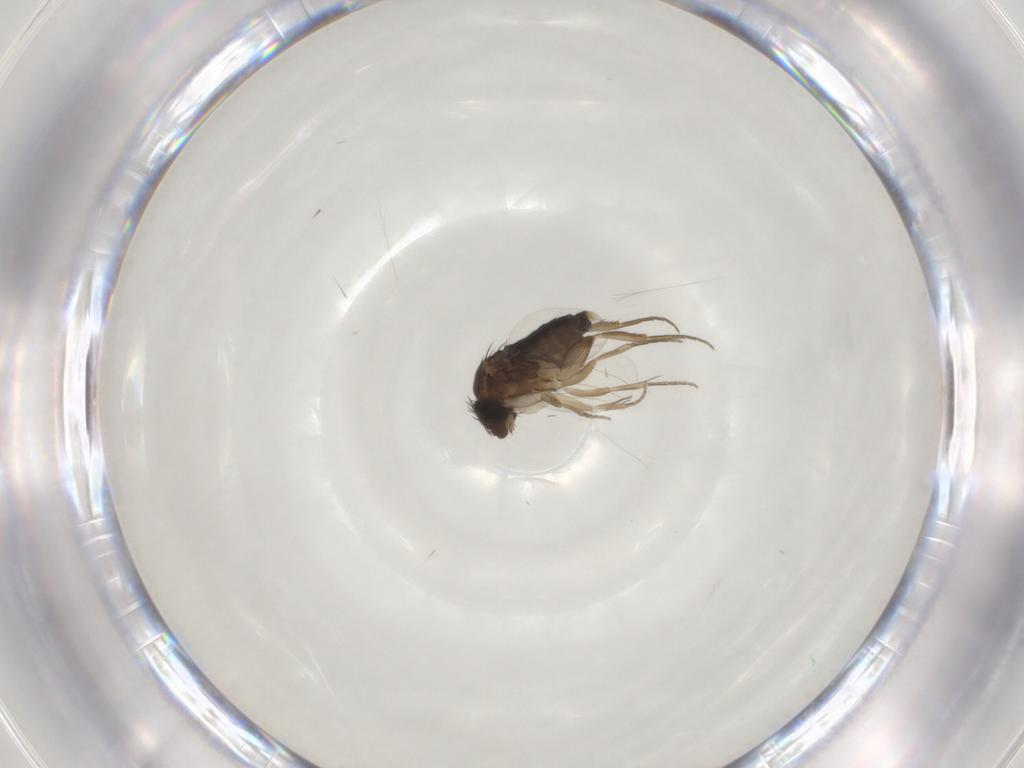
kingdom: Animalia
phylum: Arthropoda
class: Insecta
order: Diptera
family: Phoridae
